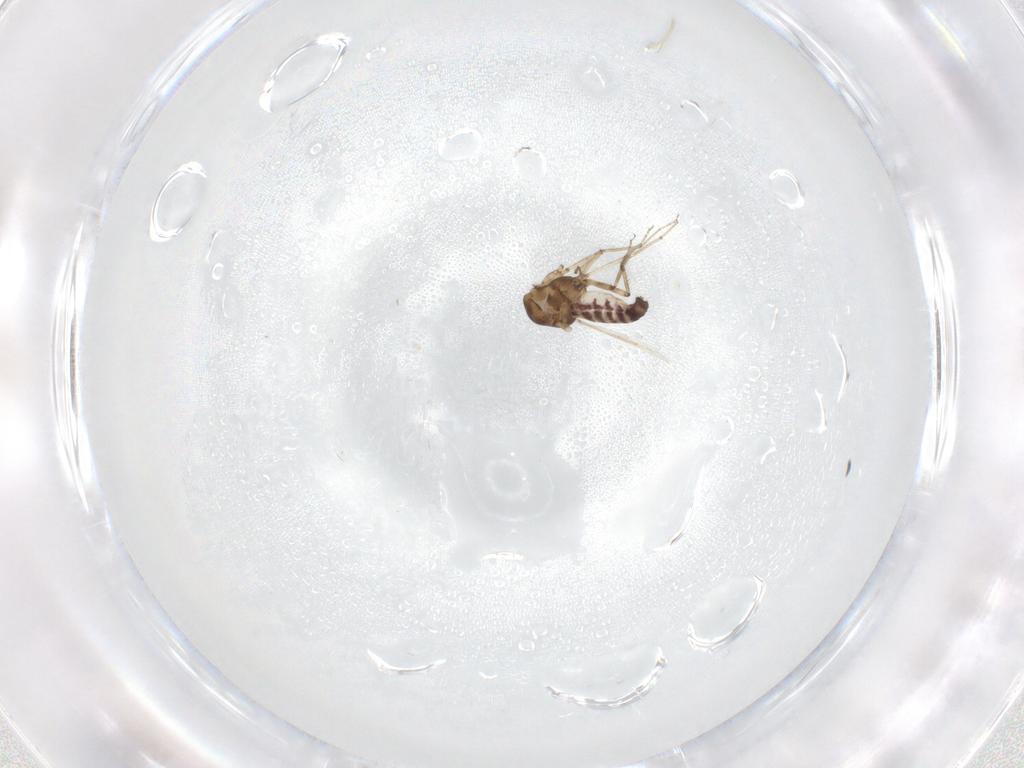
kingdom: Animalia
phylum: Arthropoda
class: Insecta
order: Diptera
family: Ceratopogonidae
